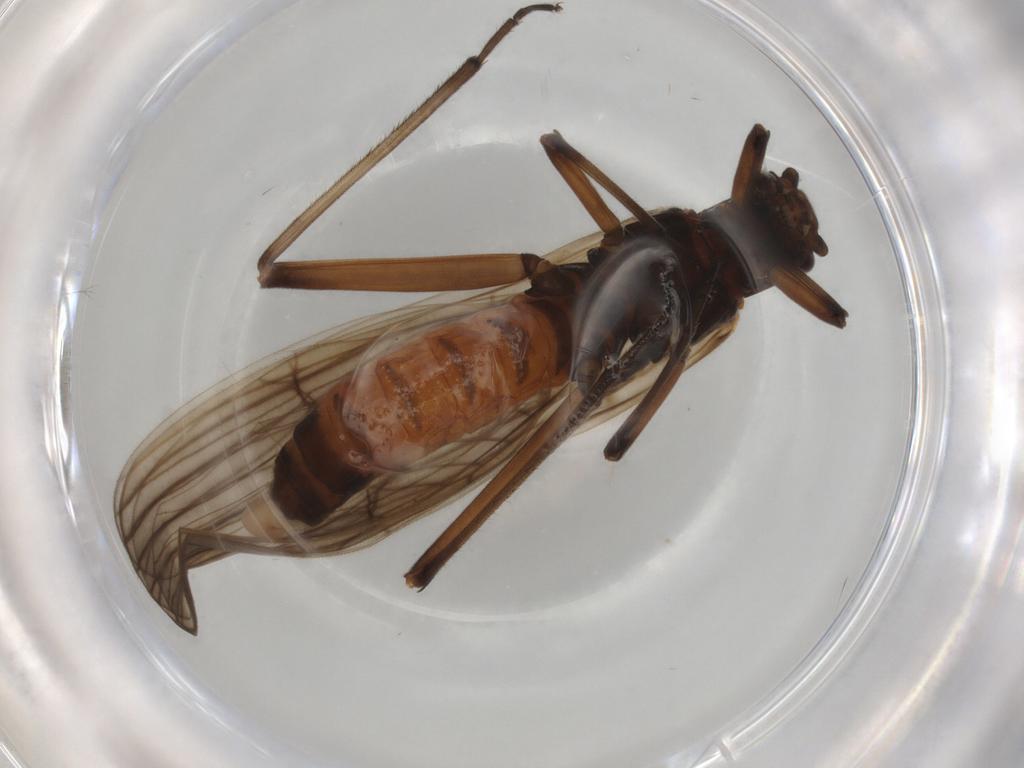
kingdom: Animalia
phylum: Arthropoda
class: Insecta
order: Plecoptera
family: Notonemouridae
